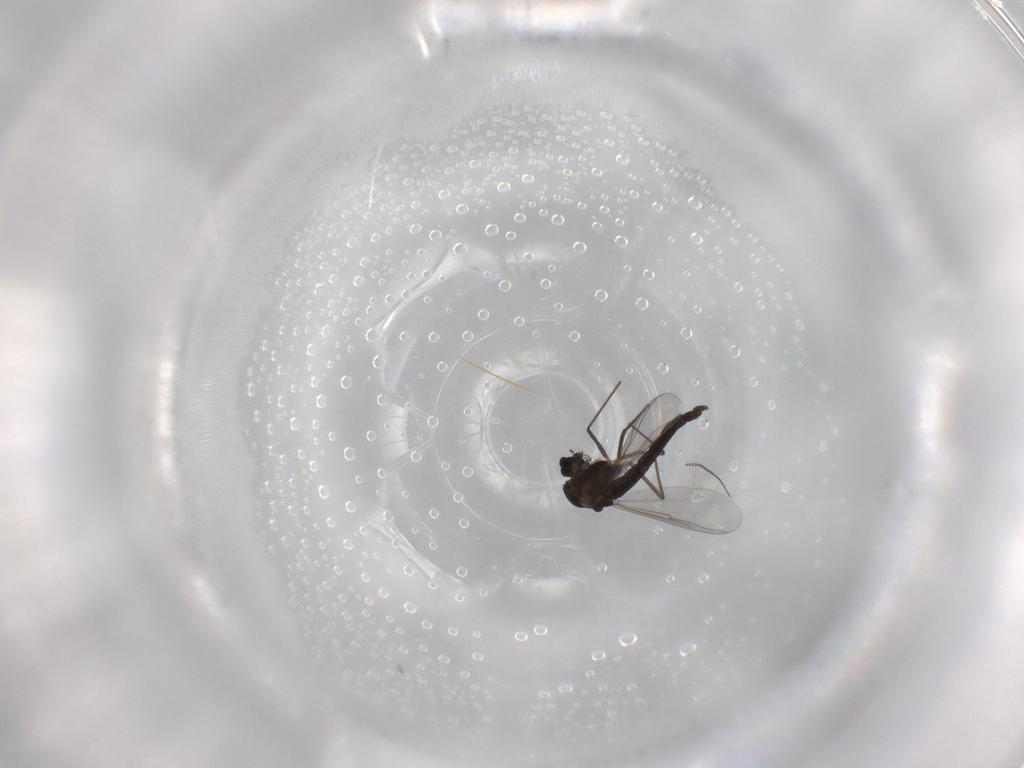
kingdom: Animalia
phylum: Arthropoda
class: Insecta
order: Diptera
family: Chironomidae
